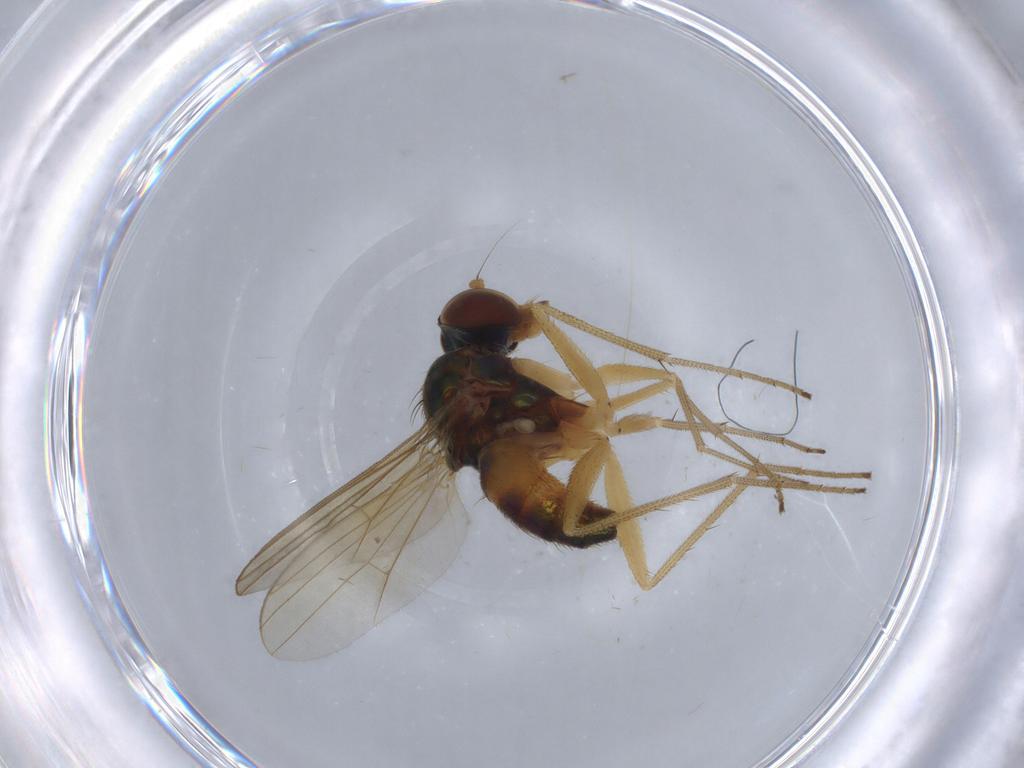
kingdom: Animalia
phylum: Arthropoda
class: Insecta
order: Diptera
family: Dolichopodidae
